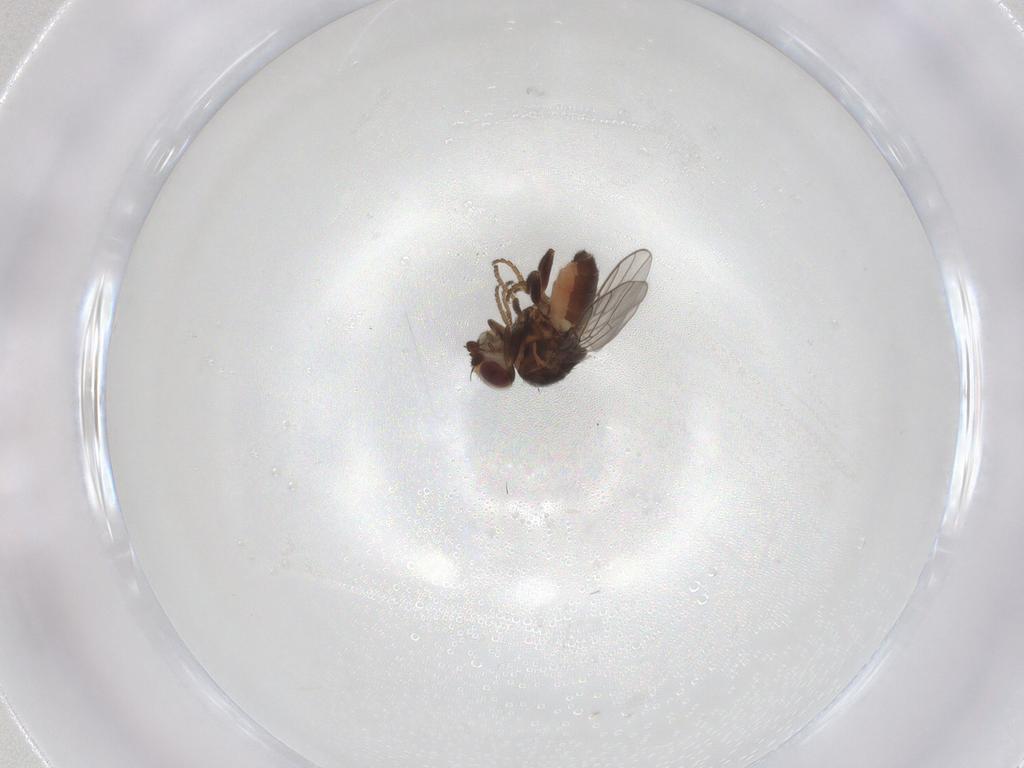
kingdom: Animalia
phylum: Arthropoda
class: Insecta
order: Diptera
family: Chloropidae
